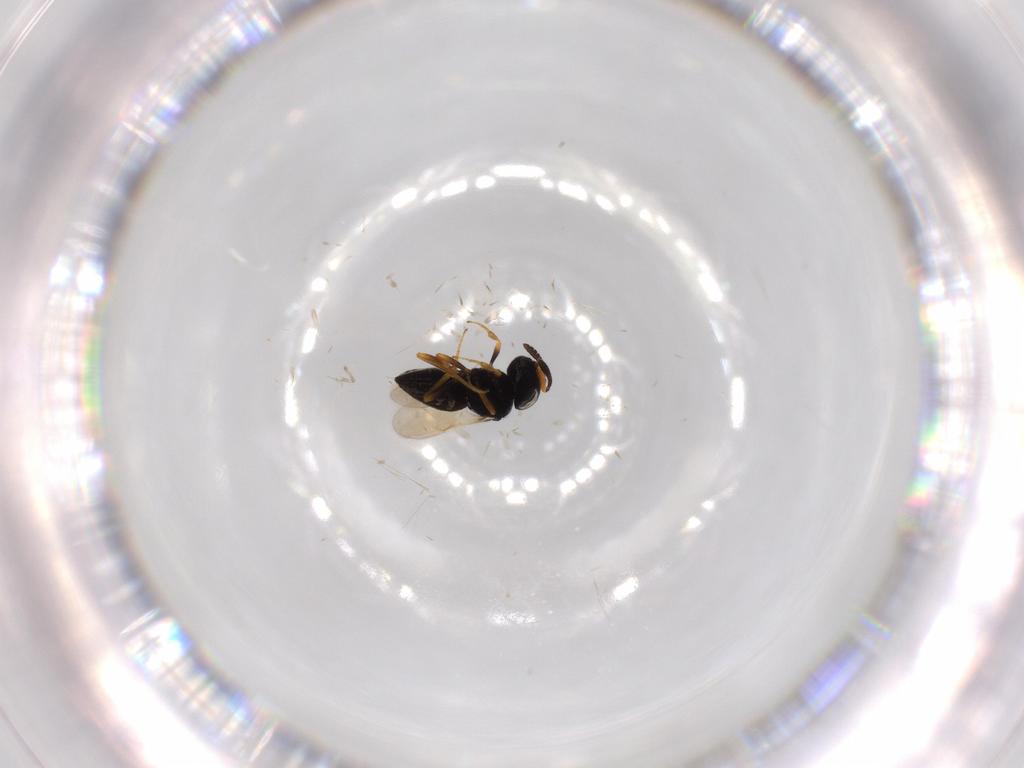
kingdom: Animalia
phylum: Arthropoda
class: Insecta
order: Hymenoptera
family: Scelionidae
